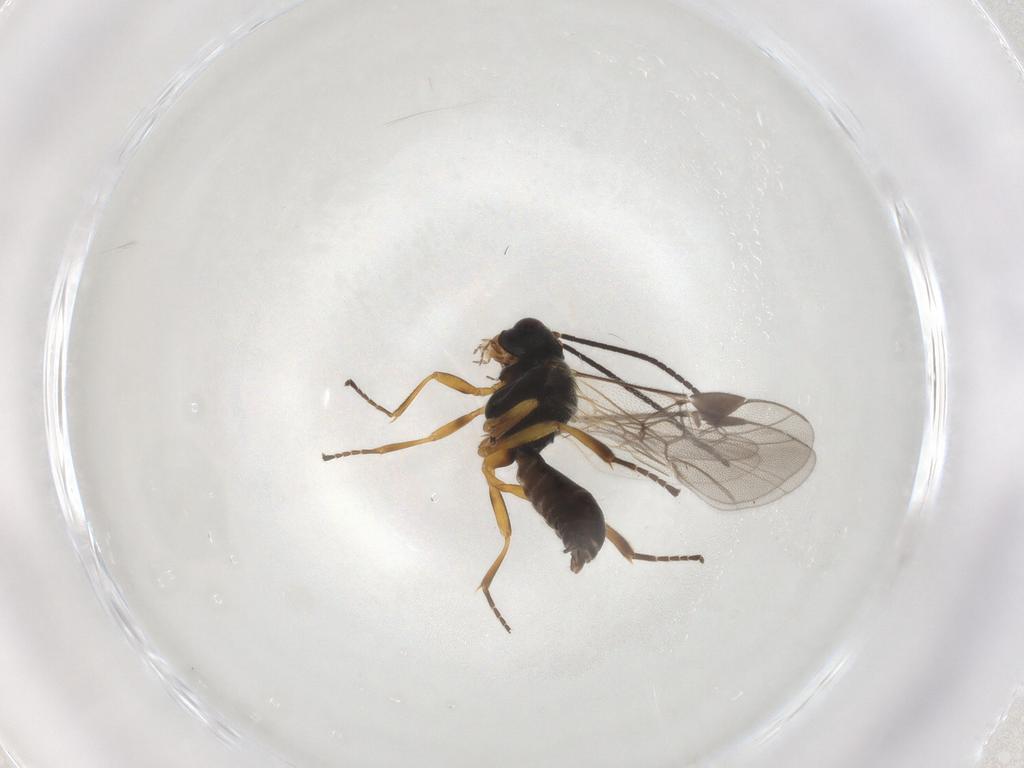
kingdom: Animalia
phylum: Arthropoda
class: Insecta
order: Hymenoptera
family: Braconidae
